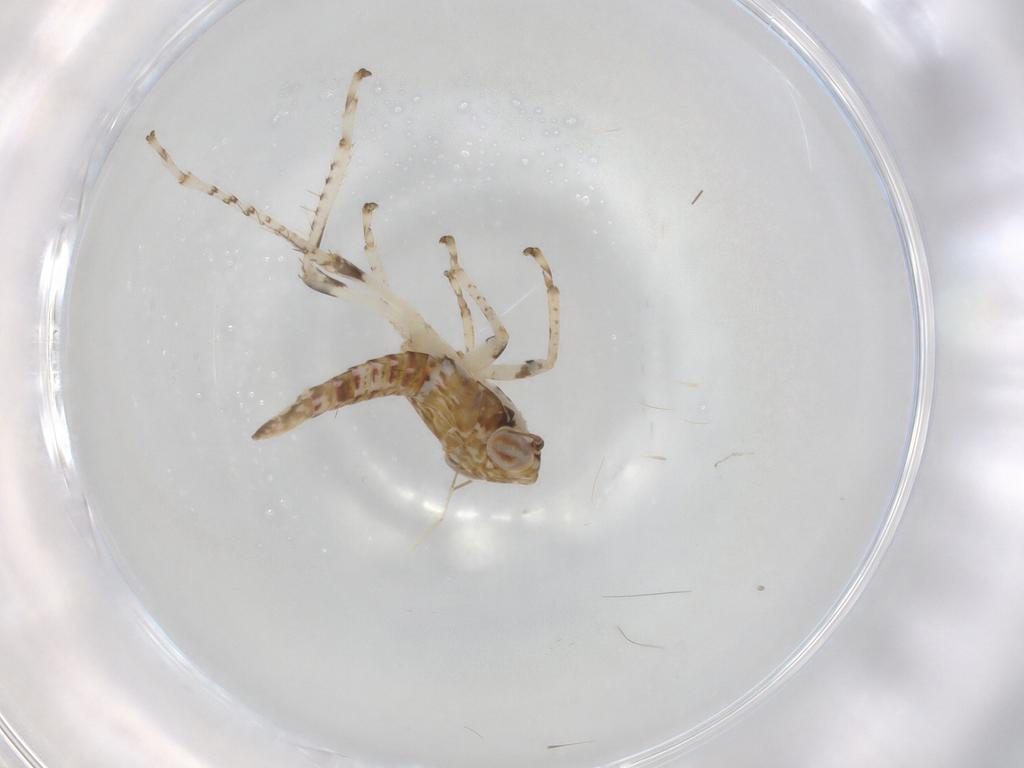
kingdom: Animalia
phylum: Arthropoda
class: Insecta
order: Hemiptera
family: Cicadellidae
